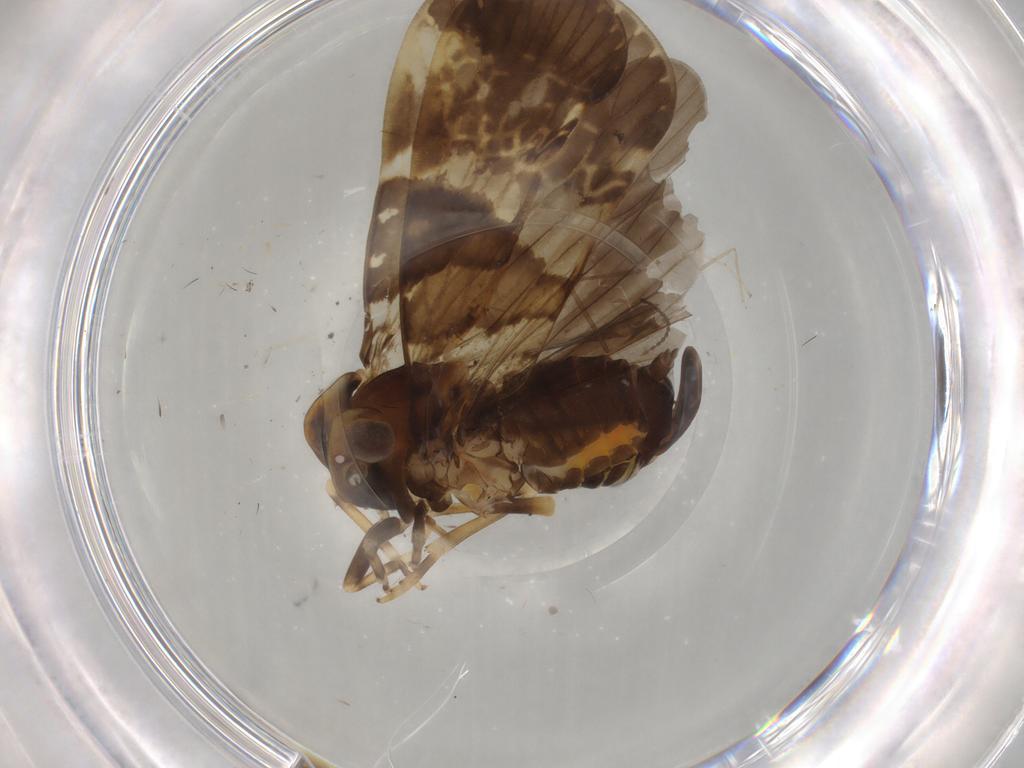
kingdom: Animalia
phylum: Arthropoda
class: Insecta
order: Hemiptera
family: Cixiidae
